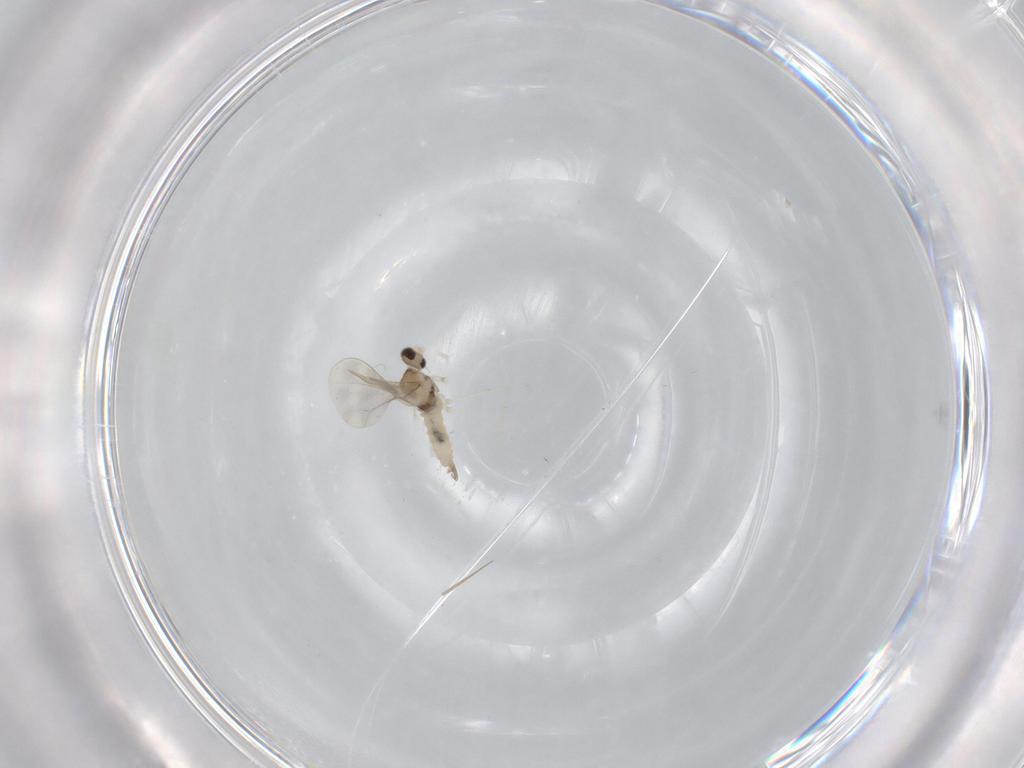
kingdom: Animalia
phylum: Arthropoda
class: Insecta
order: Diptera
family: Cecidomyiidae
